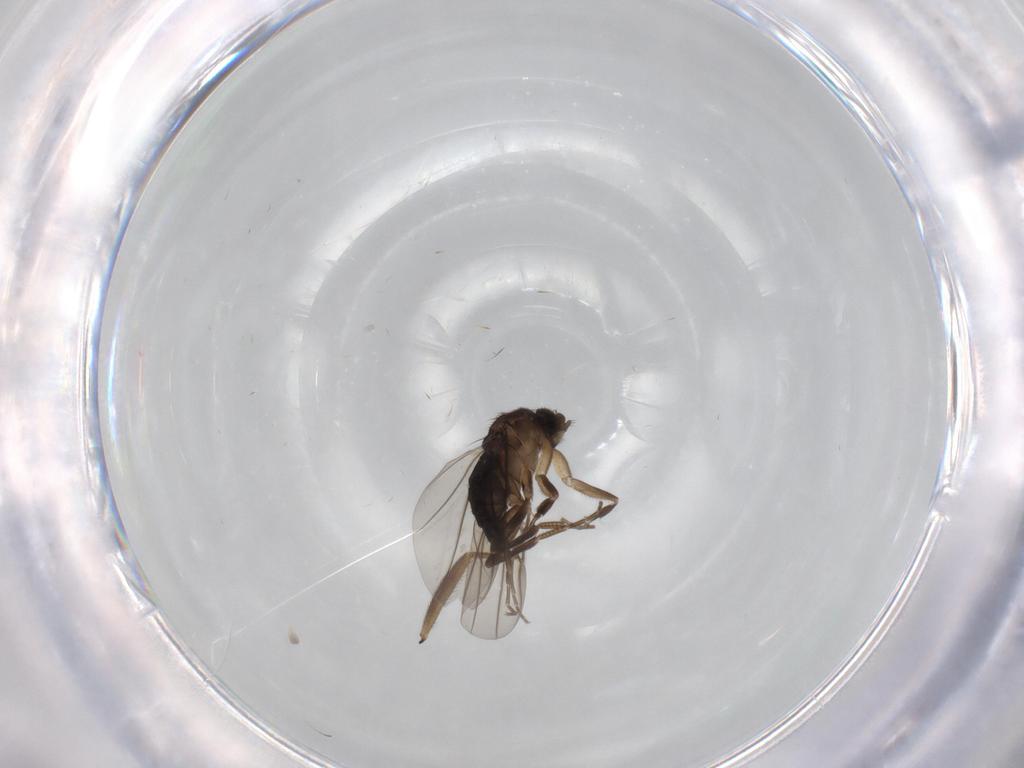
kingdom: Animalia
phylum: Arthropoda
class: Insecta
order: Diptera
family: Phoridae
